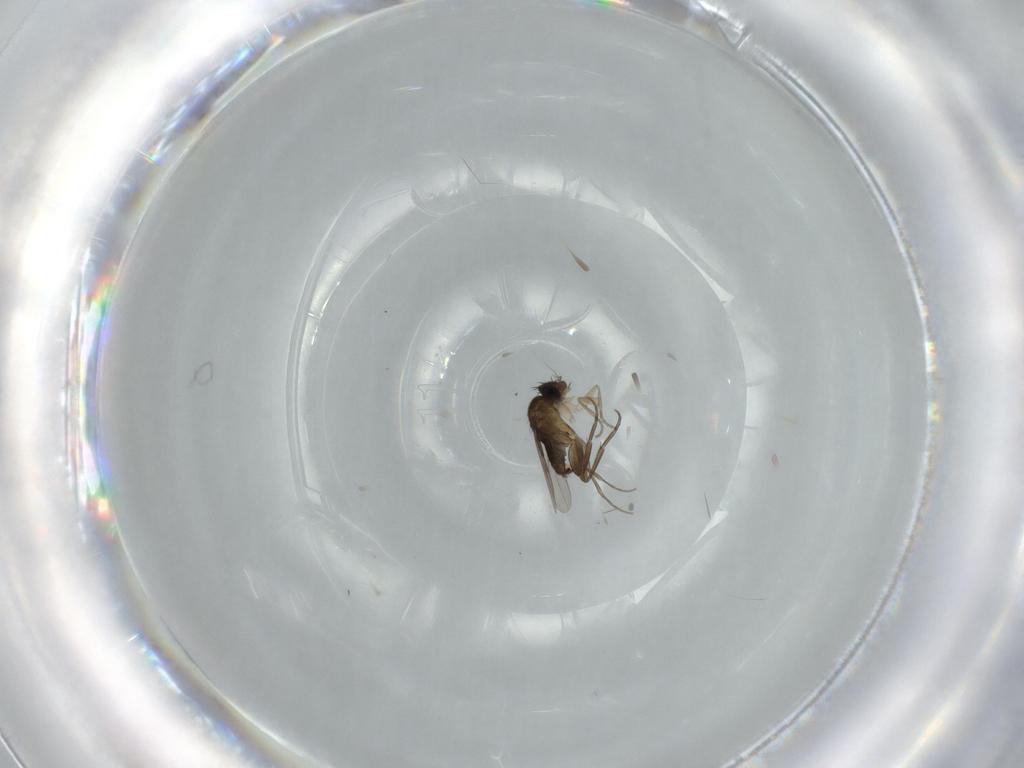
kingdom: Animalia
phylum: Arthropoda
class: Insecta
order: Diptera
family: Phoridae
